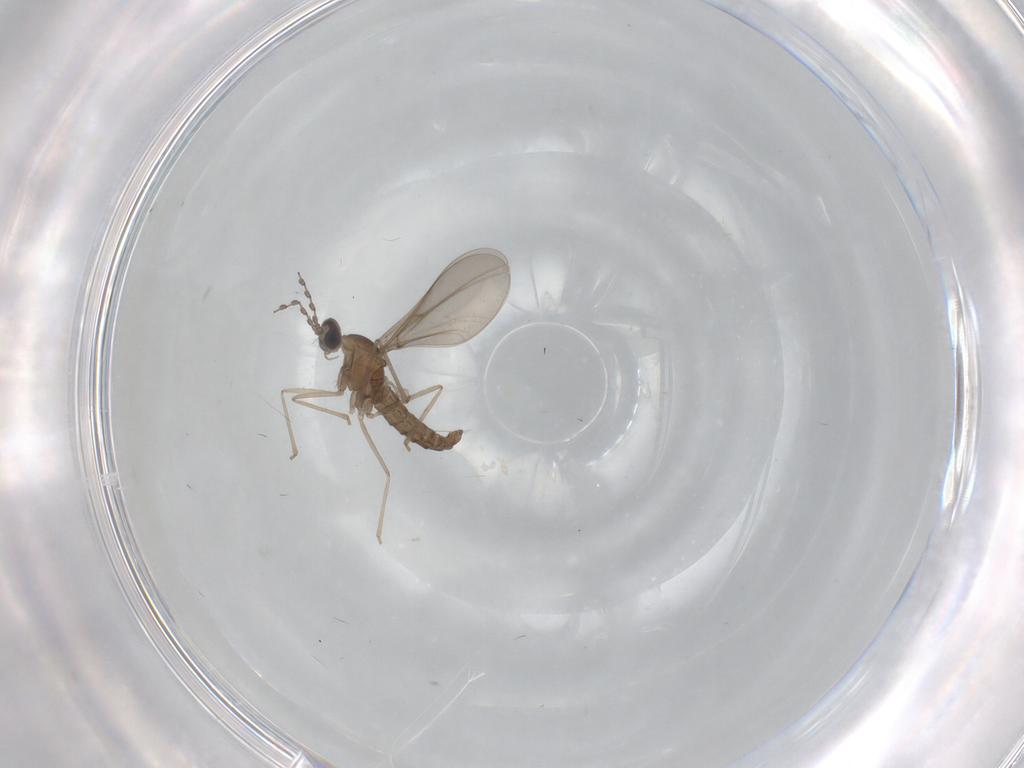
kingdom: Animalia
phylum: Arthropoda
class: Insecta
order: Diptera
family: Cecidomyiidae
